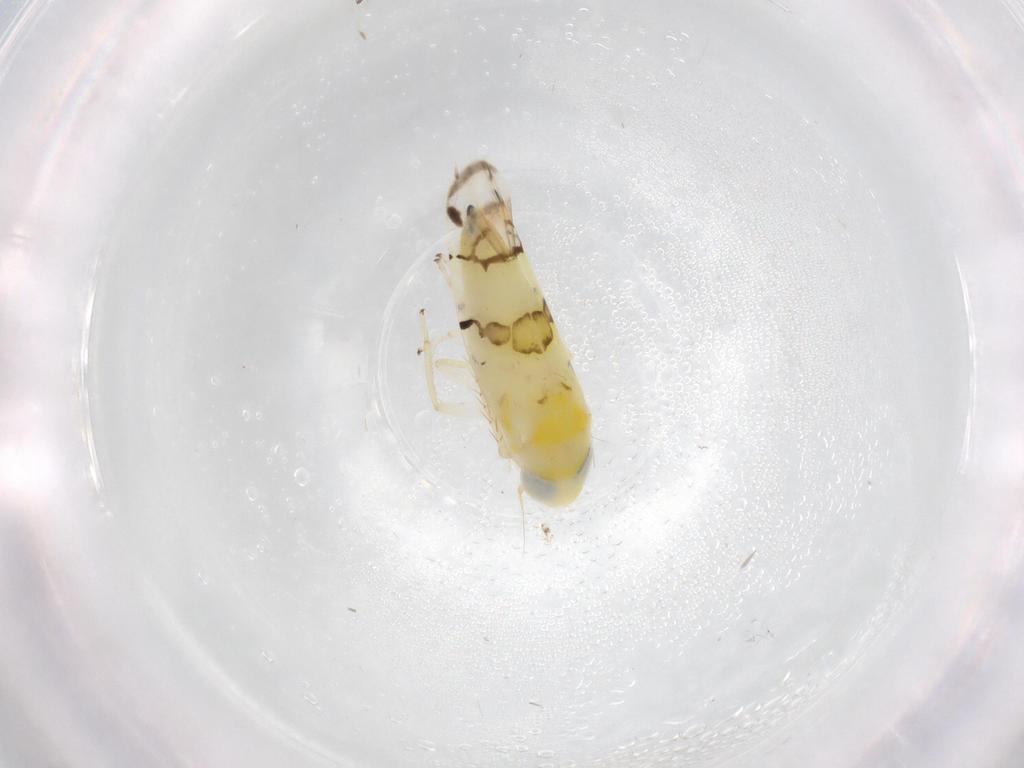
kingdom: Animalia
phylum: Arthropoda
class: Insecta
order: Hemiptera
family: Cicadellidae
